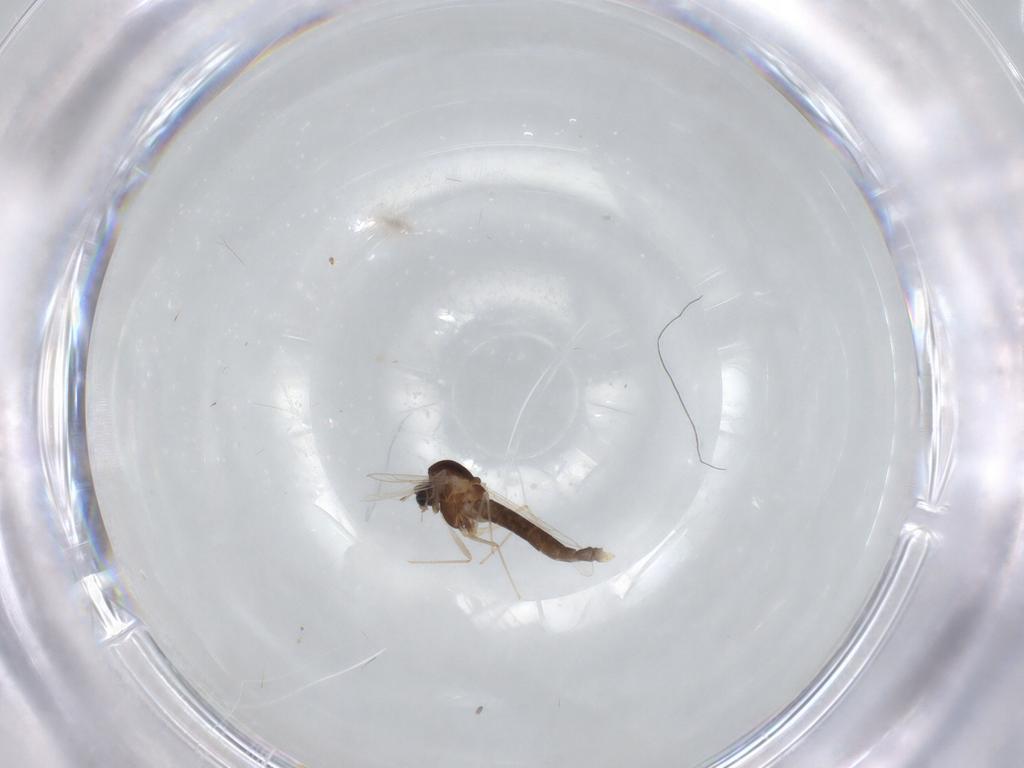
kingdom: Animalia
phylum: Arthropoda
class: Insecta
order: Diptera
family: Chironomidae
